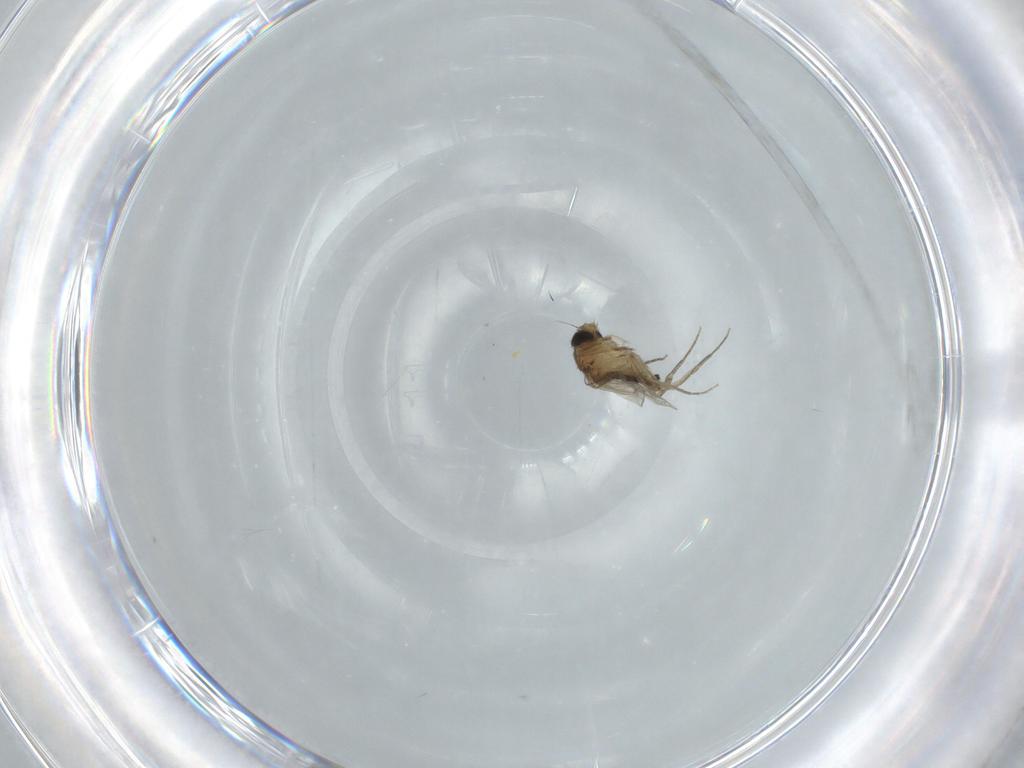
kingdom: Animalia
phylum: Arthropoda
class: Insecta
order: Diptera
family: Phoridae
